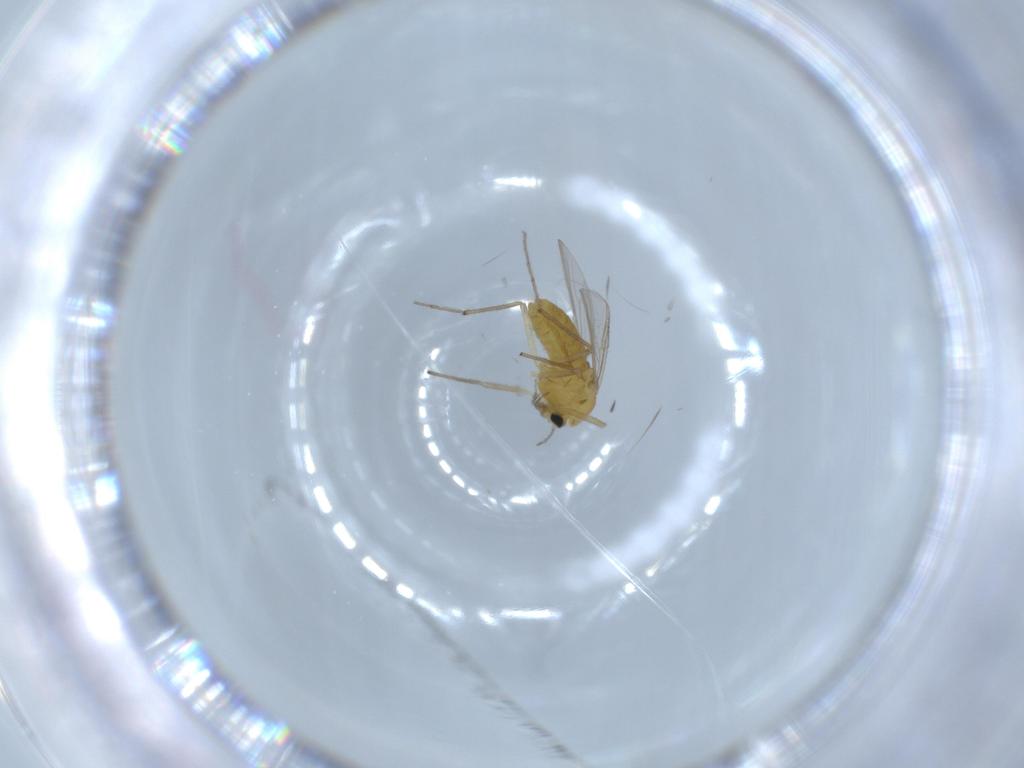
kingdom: Animalia
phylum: Arthropoda
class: Insecta
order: Diptera
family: Chironomidae
